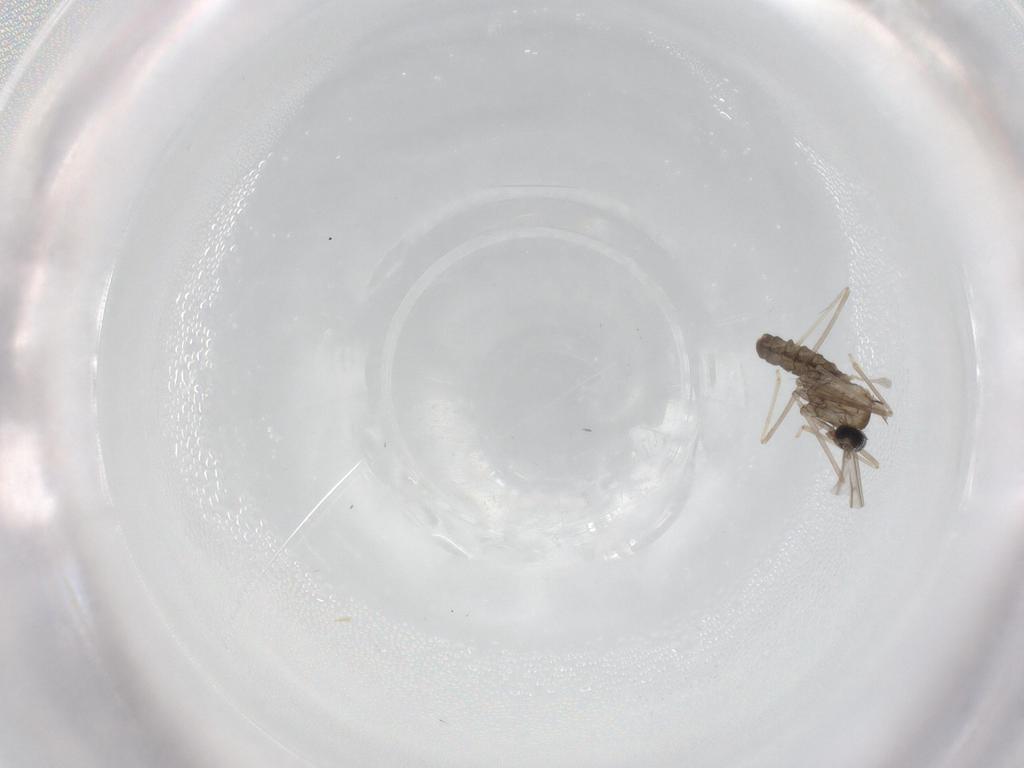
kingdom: Animalia
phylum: Arthropoda
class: Insecta
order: Diptera
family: Cecidomyiidae
